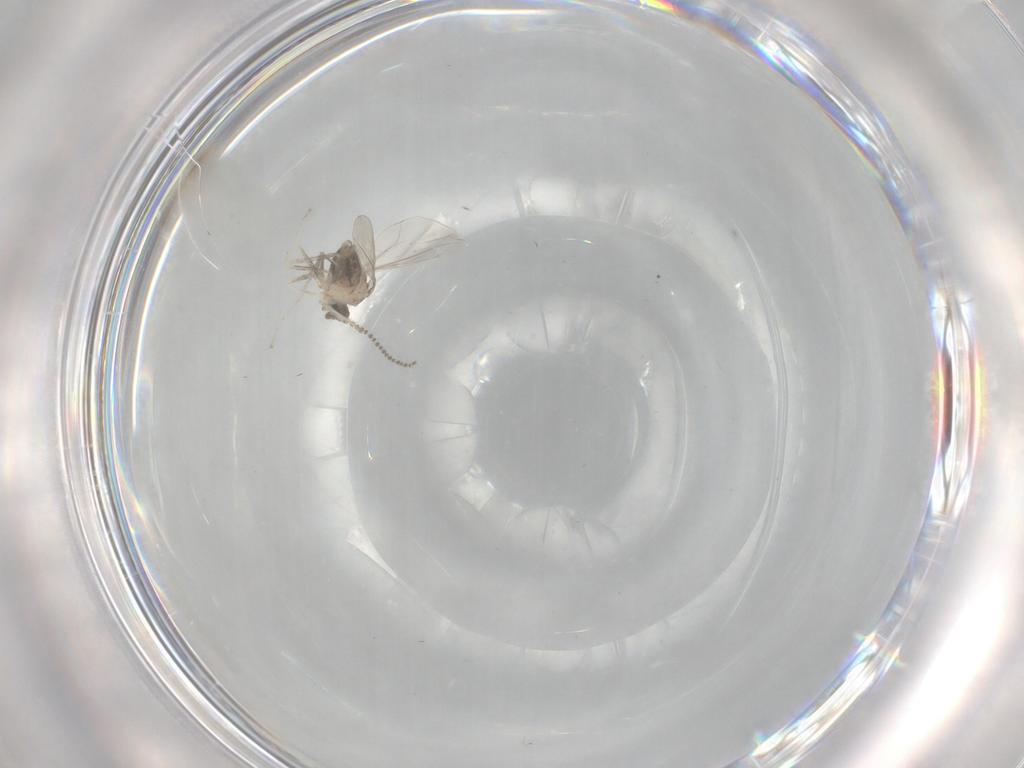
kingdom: Animalia
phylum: Arthropoda
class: Insecta
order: Diptera
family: Cecidomyiidae
